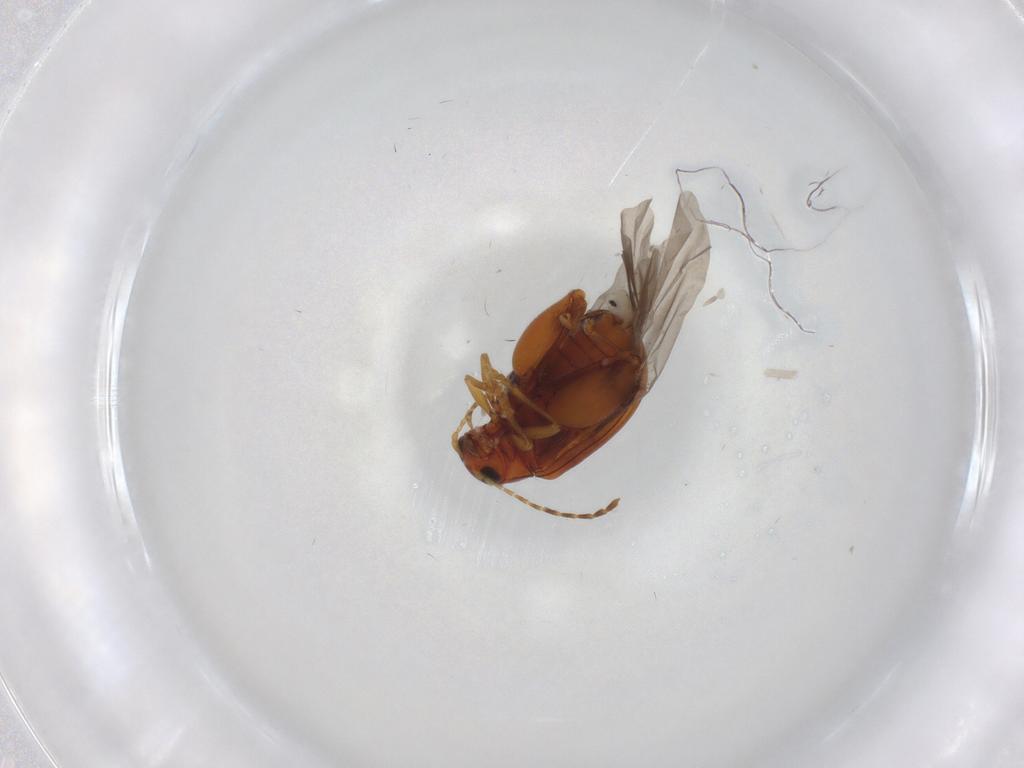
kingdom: Animalia
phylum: Arthropoda
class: Insecta
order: Coleoptera
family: Chrysomelidae
